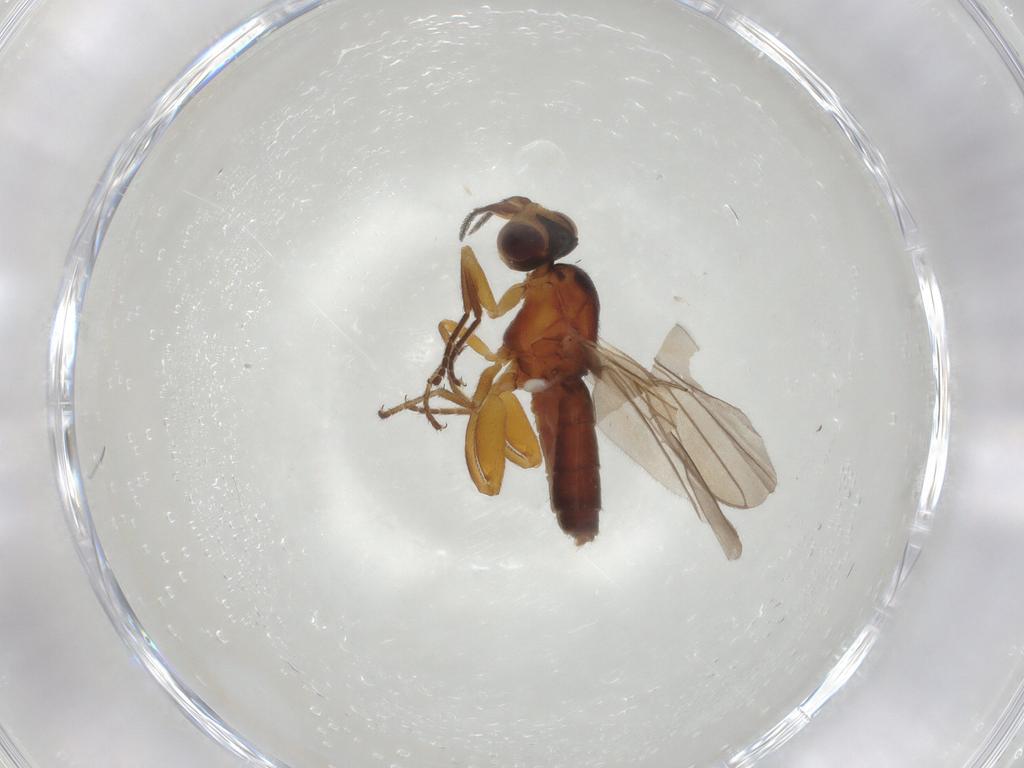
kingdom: Animalia
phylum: Arthropoda
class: Insecta
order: Diptera
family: Chloropidae
